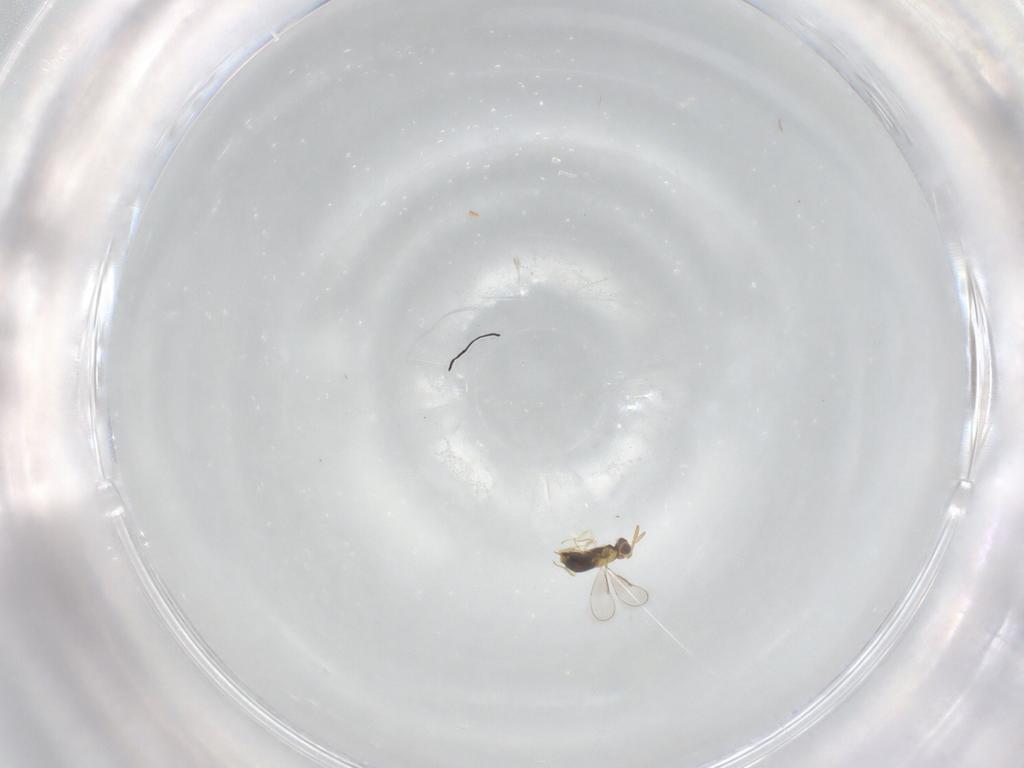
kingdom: Animalia
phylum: Arthropoda
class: Insecta
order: Hymenoptera
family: Aphelinidae
